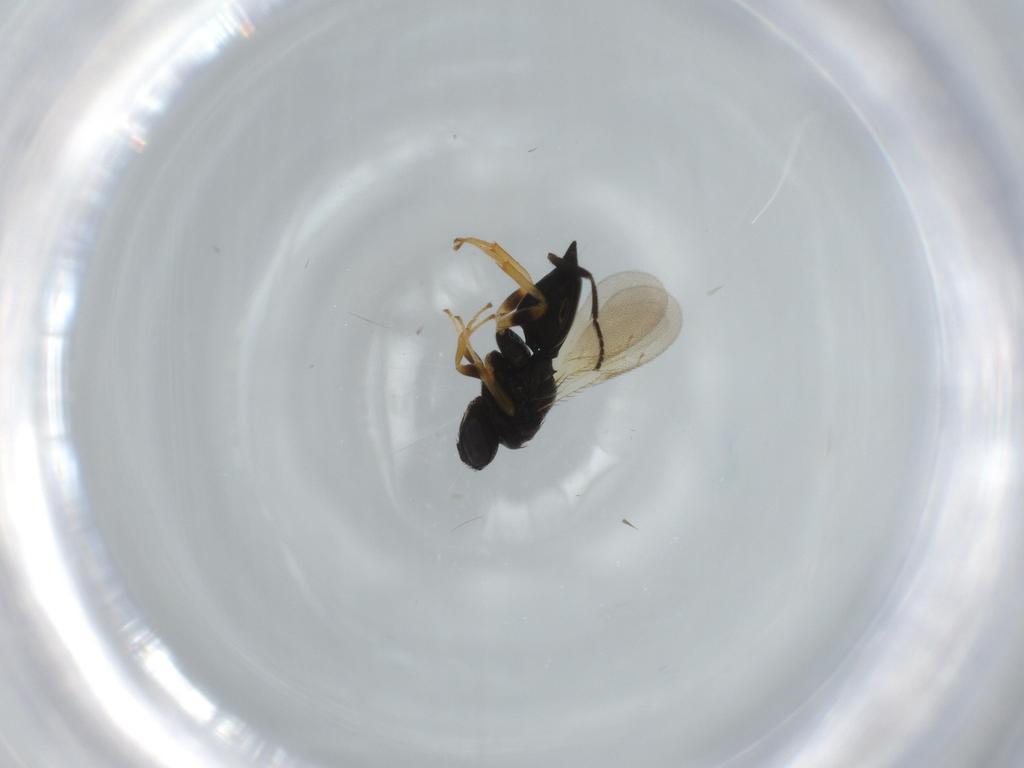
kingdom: Animalia
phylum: Arthropoda
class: Insecta
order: Hymenoptera
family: Pteromalidae
